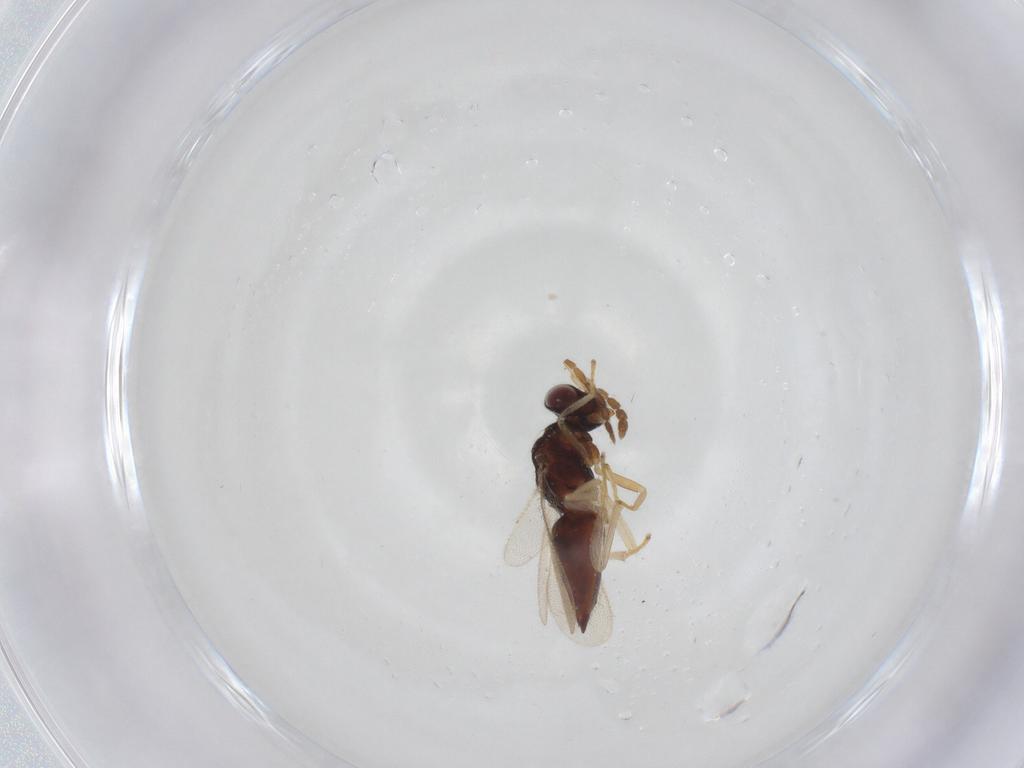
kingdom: Animalia
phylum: Arthropoda
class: Insecta
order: Hymenoptera
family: Eulophidae
